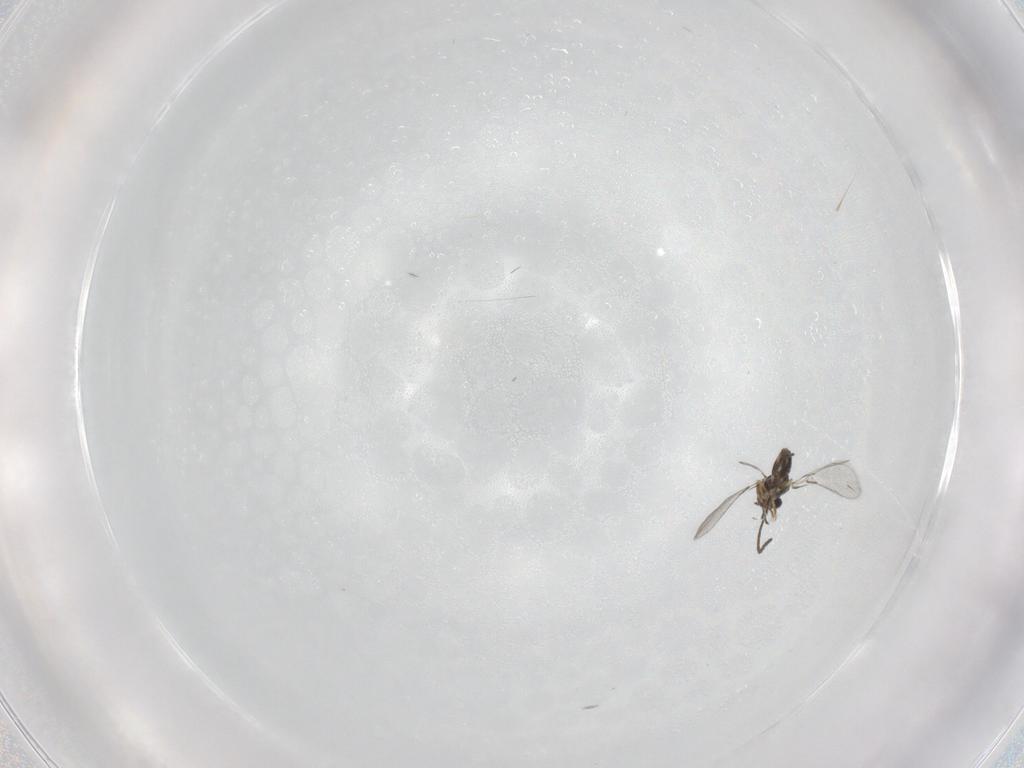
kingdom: Animalia
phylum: Arthropoda
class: Insecta
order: Hymenoptera
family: Mymaridae
